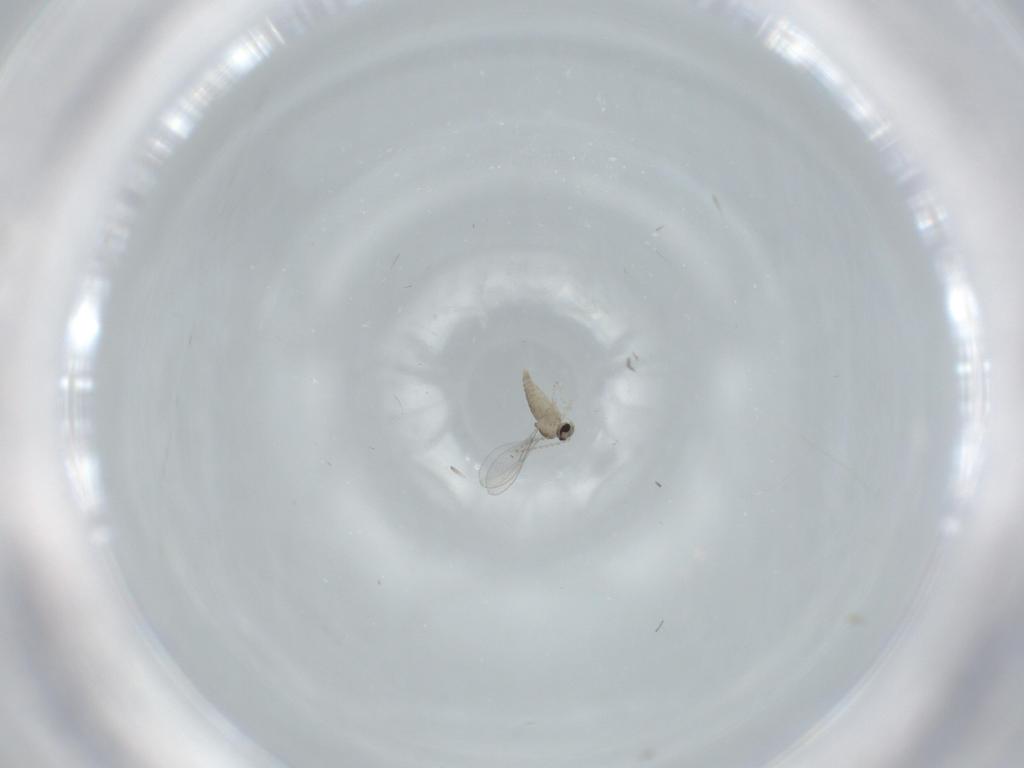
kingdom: Animalia
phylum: Arthropoda
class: Insecta
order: Diptera
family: Cecidomyiidae
